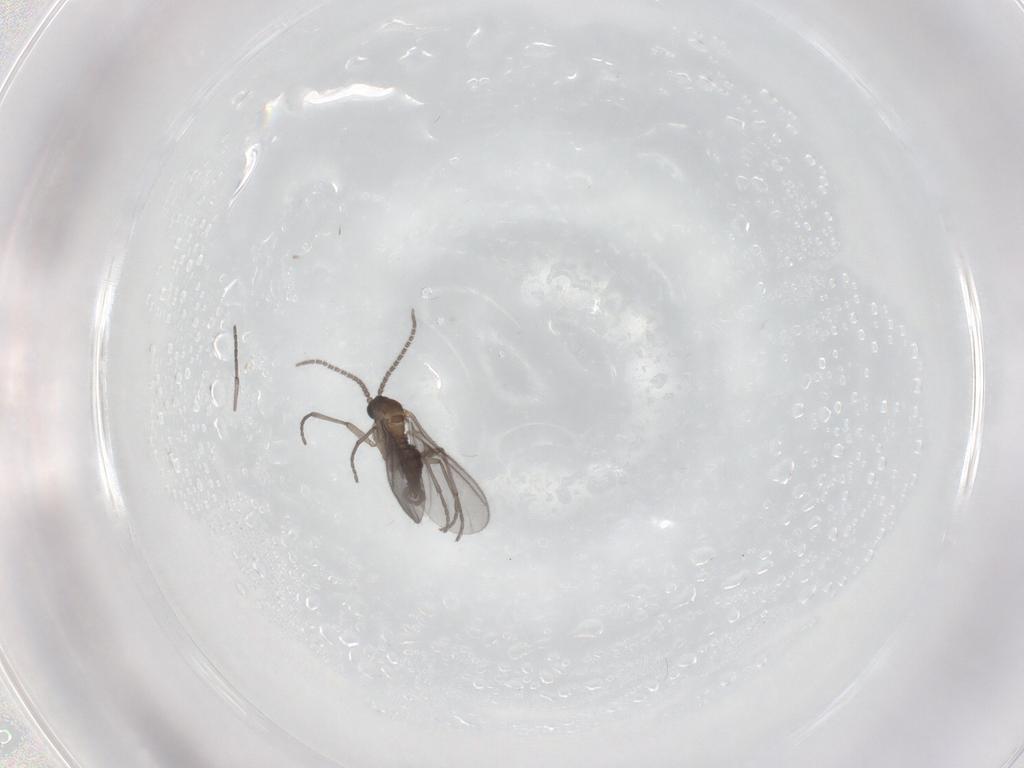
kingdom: Animalia
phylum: Arthropoda
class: Insecta
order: Diptera
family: Sciaridae
